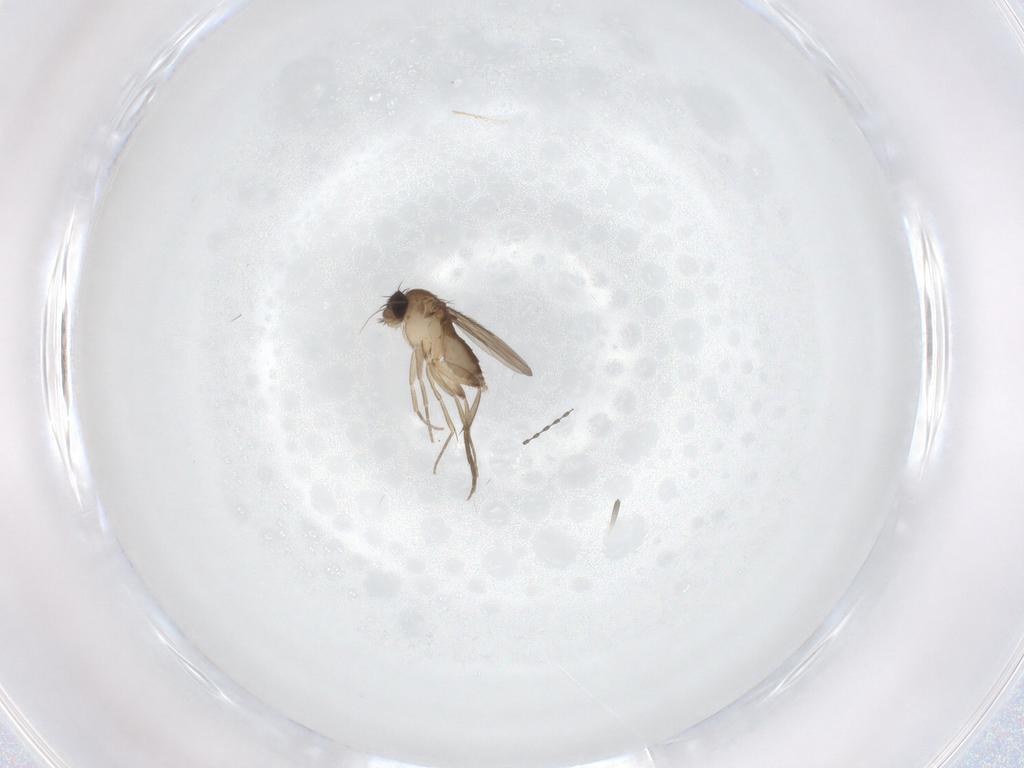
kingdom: Animalia
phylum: Arthropoda
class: Insecta
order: Diptera
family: Phoridae
